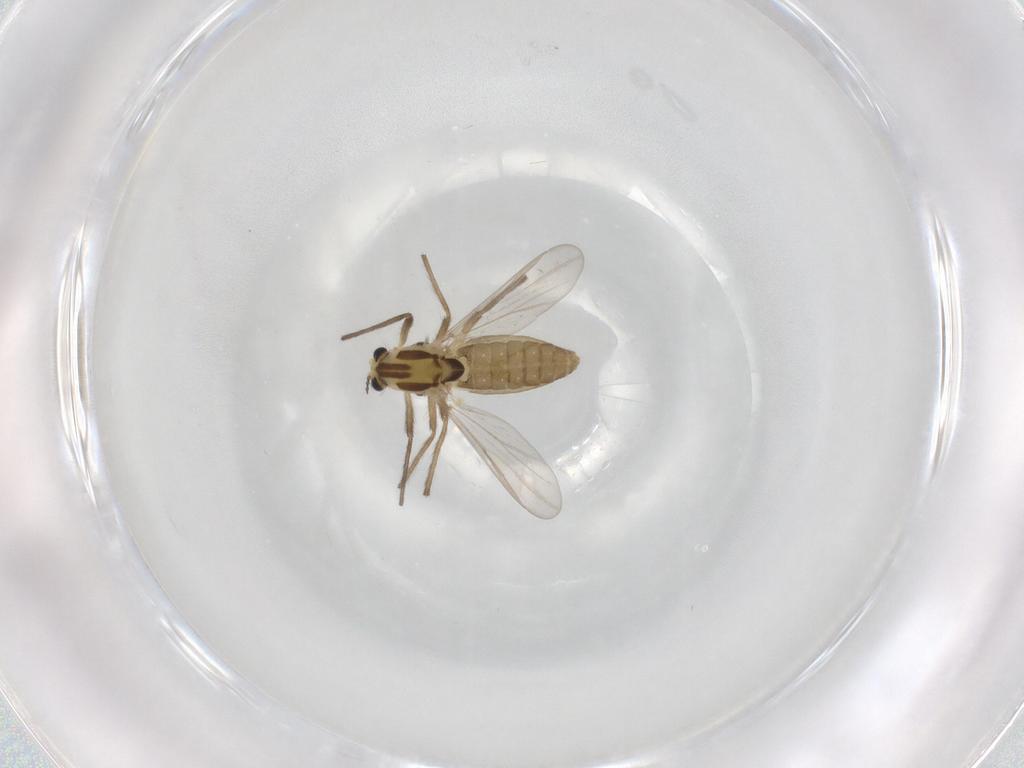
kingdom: Animalia
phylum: Arthropoda
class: Insecta
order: Diptera
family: Chironomidae
